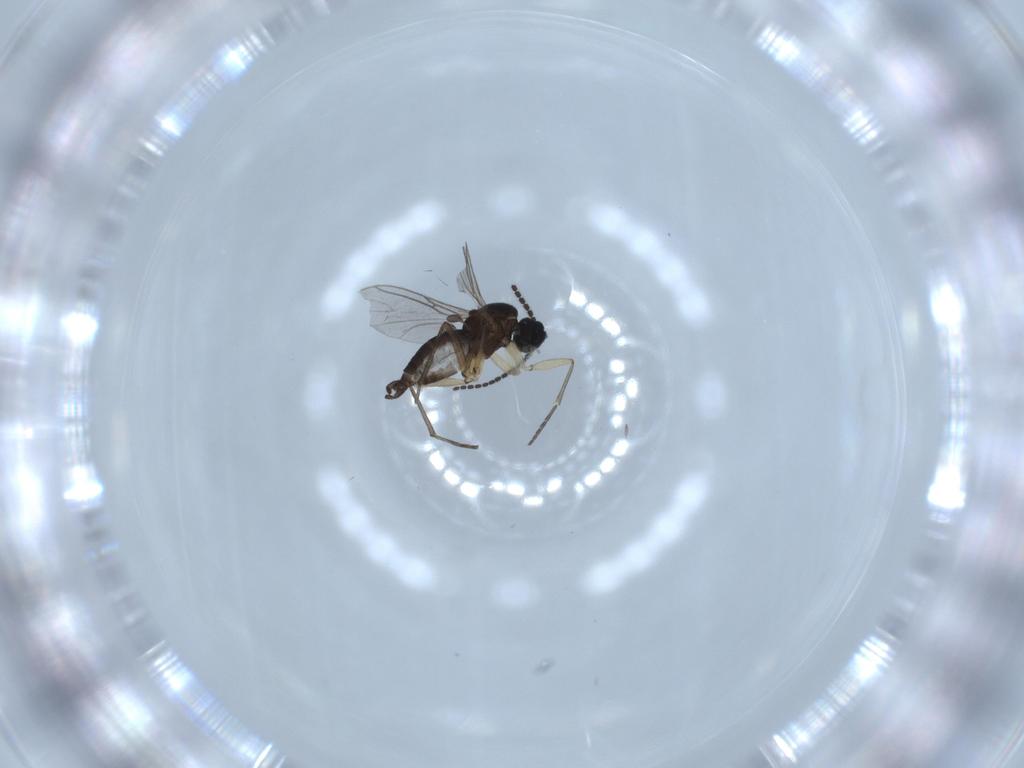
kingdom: Animalia
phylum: Arthropoda
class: Insecta
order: Diptera
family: Sciaridae
